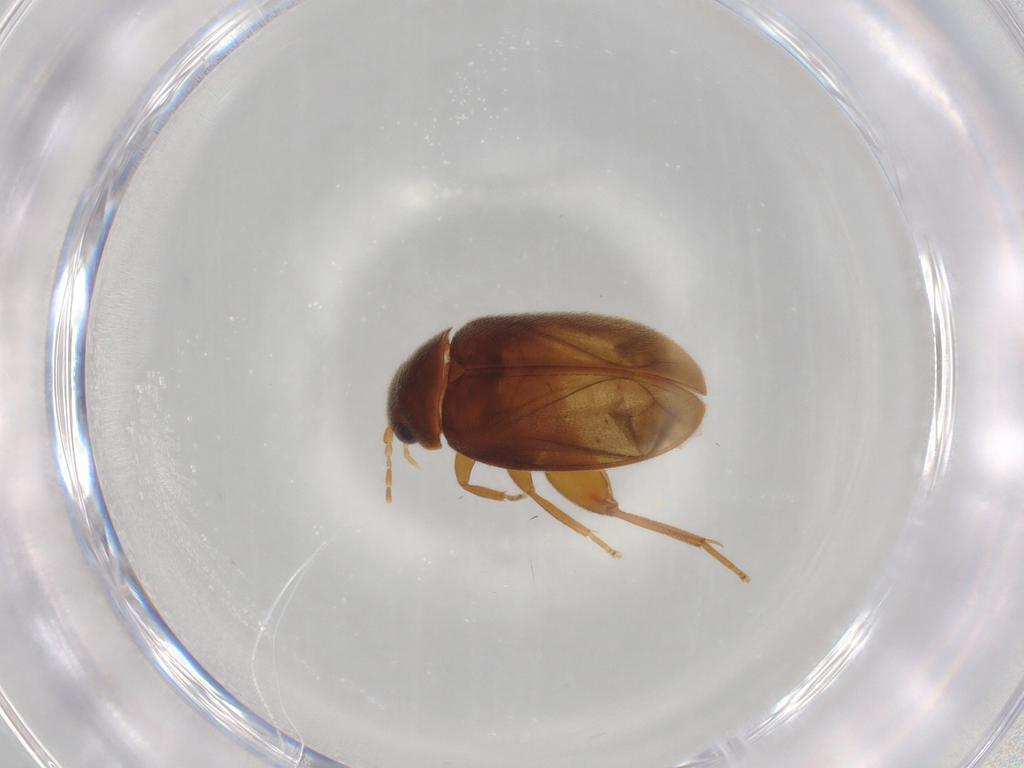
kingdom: Animalia
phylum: Arthropoda
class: Insecta
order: Coleoptera
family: Scirtidae
